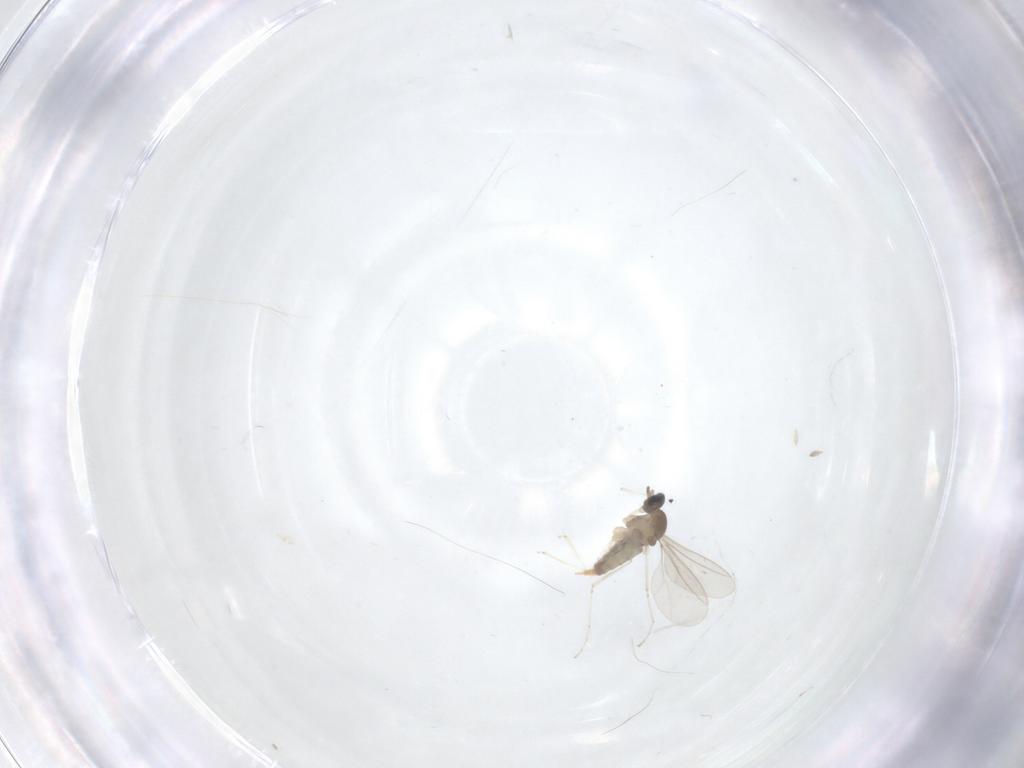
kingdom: Animalia
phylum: Arthropoda
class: Insecta
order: Diptera
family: Cecidomyiidae
